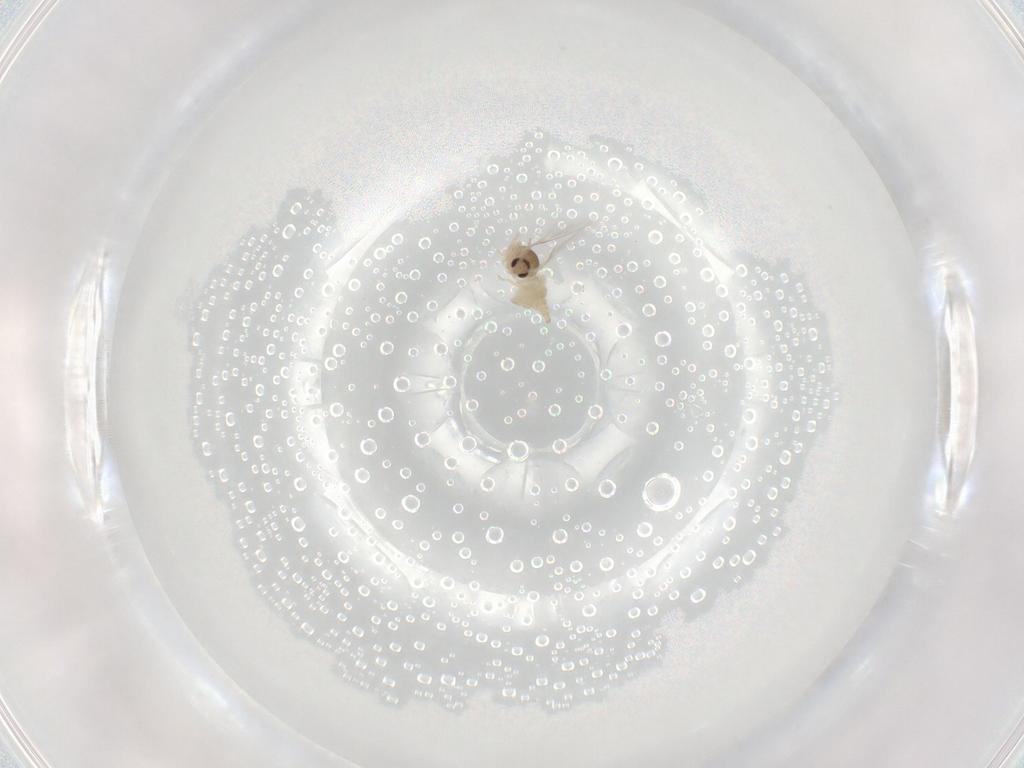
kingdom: Animalia
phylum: Arthropoda
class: Insecta
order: Diptera
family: Cecidomyiidae
